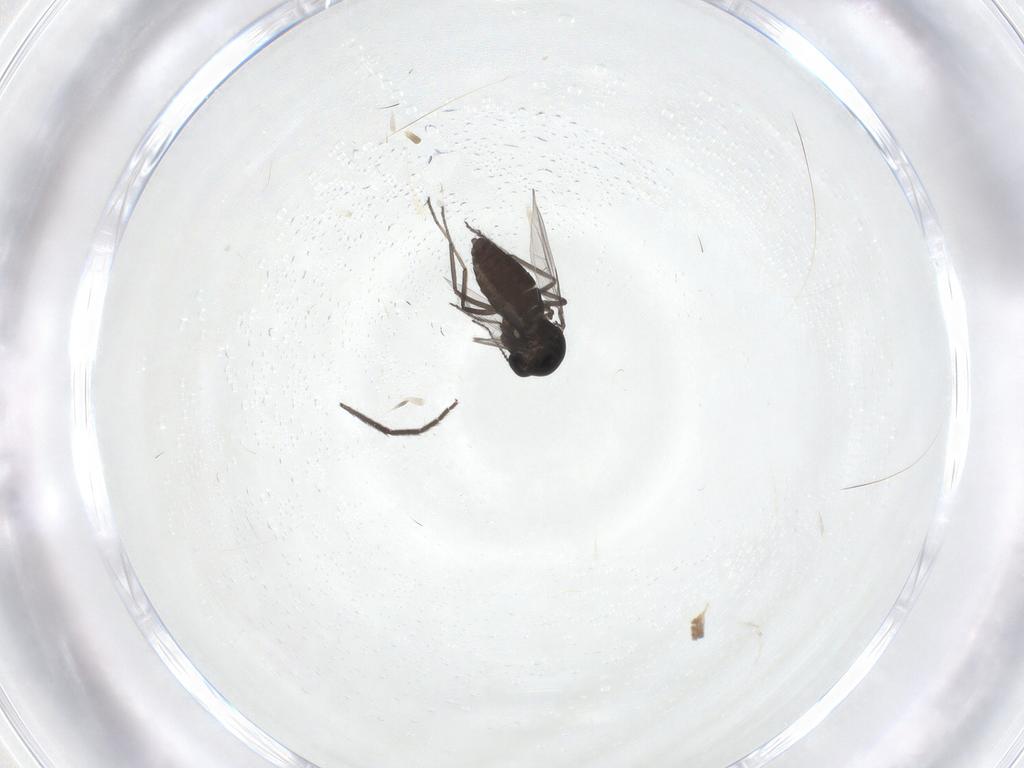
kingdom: Animalia
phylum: Arthropoda
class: Insecta
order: Diptera
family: Ceratopogonidae
